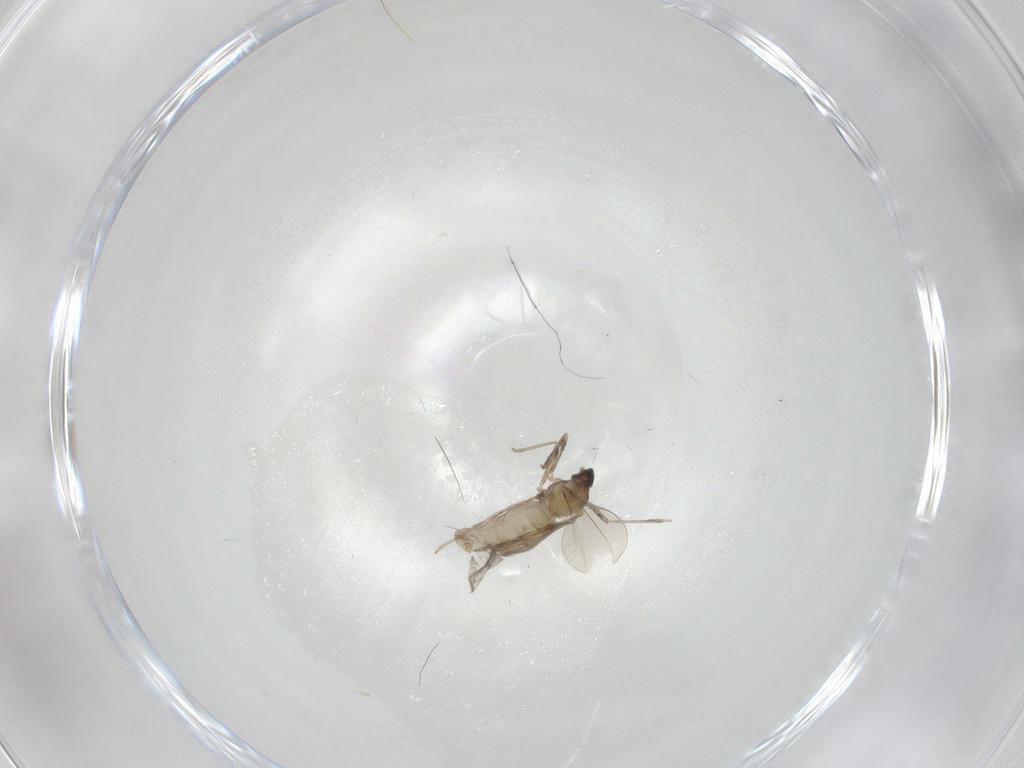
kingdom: Animalia
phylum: Arthropoda
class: Insecta
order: Diptera
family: Cecidomyiidae
